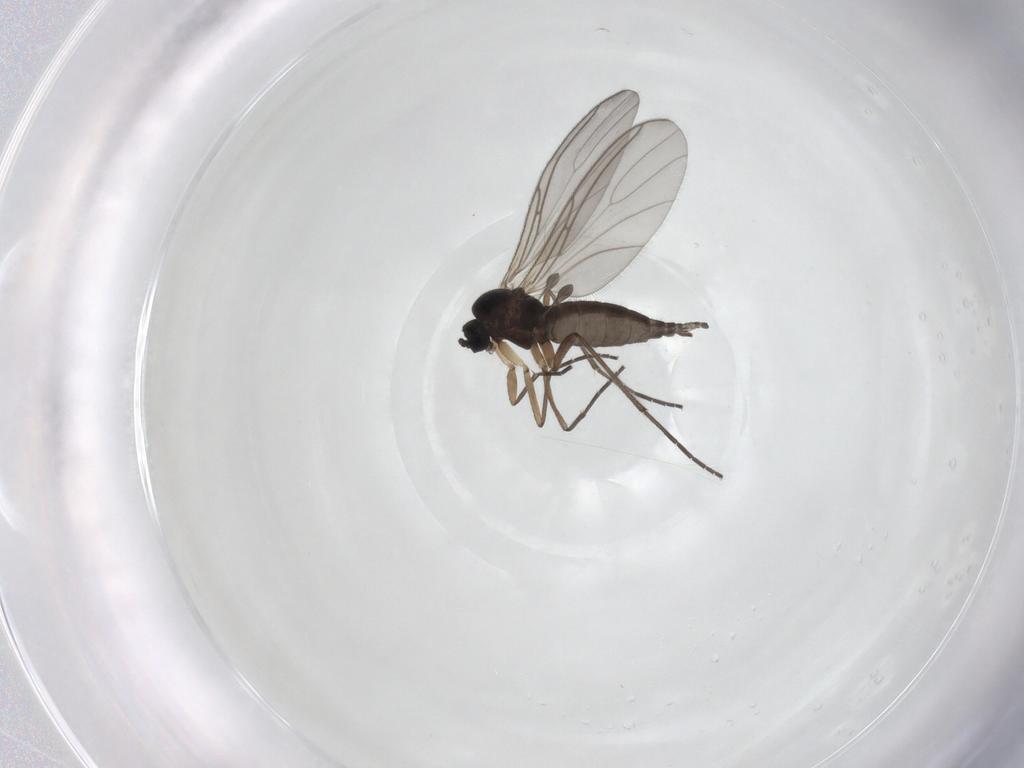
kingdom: Animalia
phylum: Arthropoda
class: Insecta
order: Diptera
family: Sciaridae
